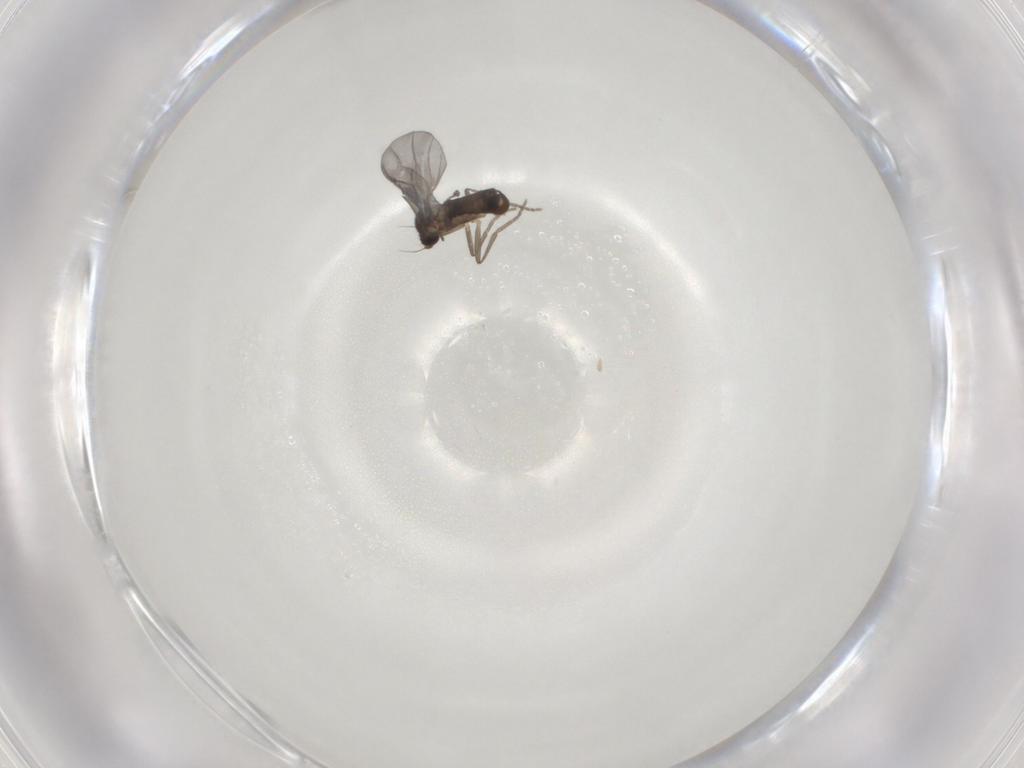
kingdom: Animalia
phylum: Arthropoda
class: Insecta
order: Diptera
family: Phoridae
